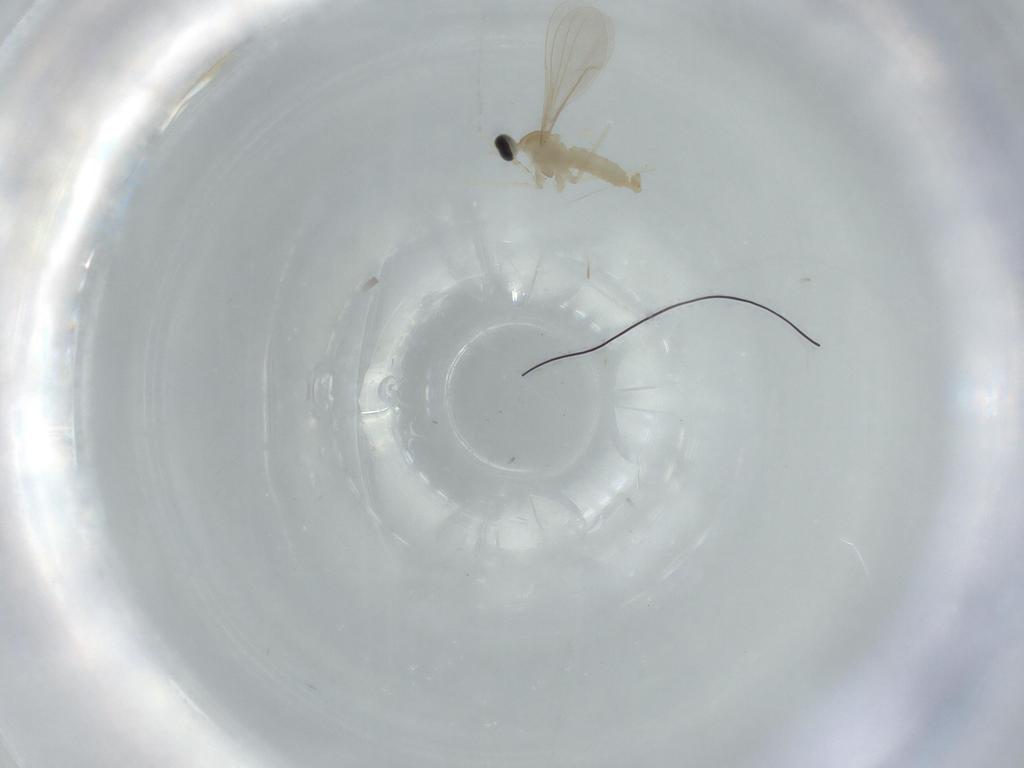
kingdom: Animalia
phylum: Arthropoda
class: Insecta
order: Diptera
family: Cecidomyiidae
